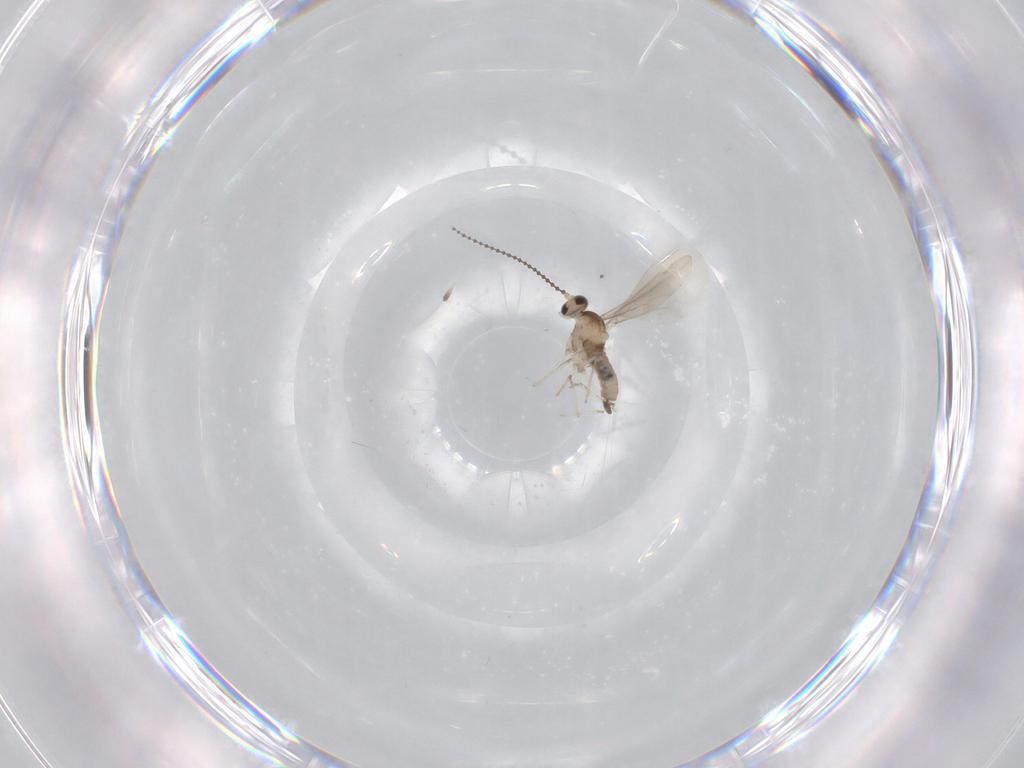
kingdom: Animalia
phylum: Arthropoda
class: Insecta
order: Diptera
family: Cecidomyiidae
